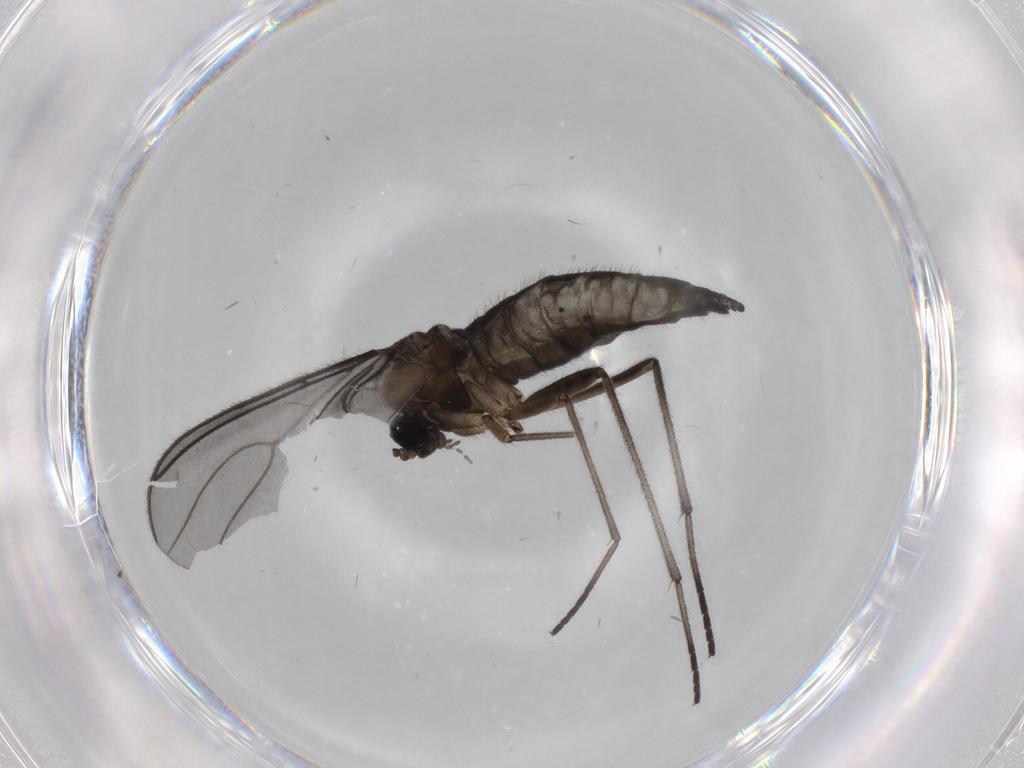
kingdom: Animalia
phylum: Arthropoda
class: Insecta
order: Diptera
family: Sciaridae
